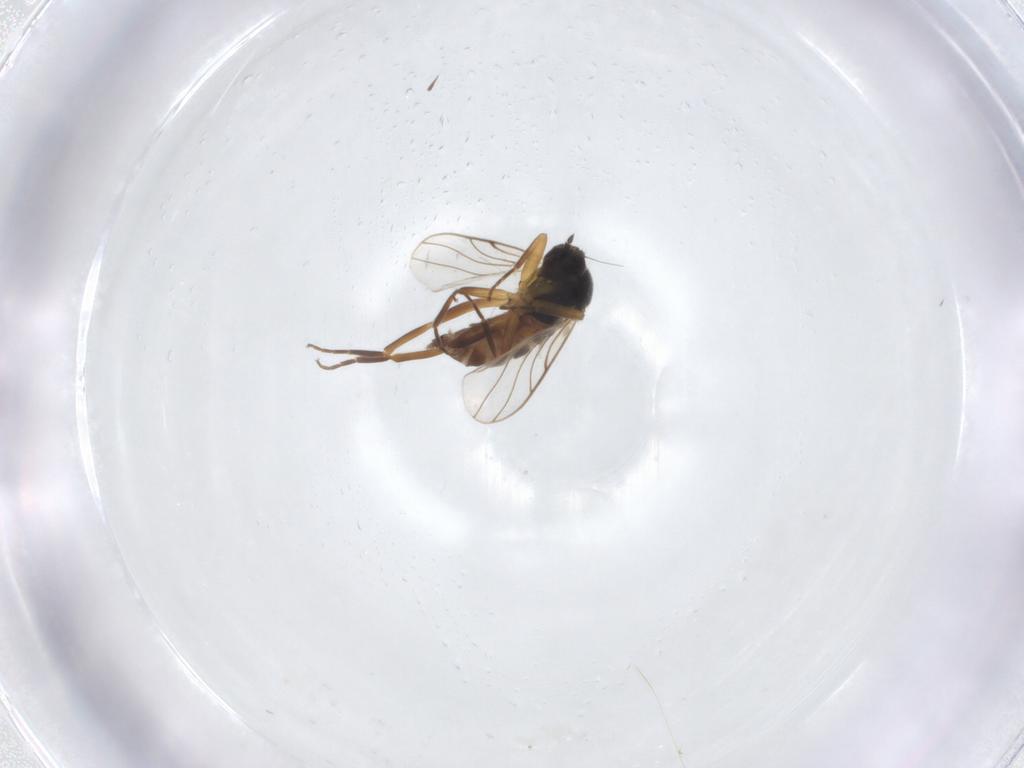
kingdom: Animalia
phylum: Arthropoda
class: Insecta
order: Diptera
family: Hybotidae
